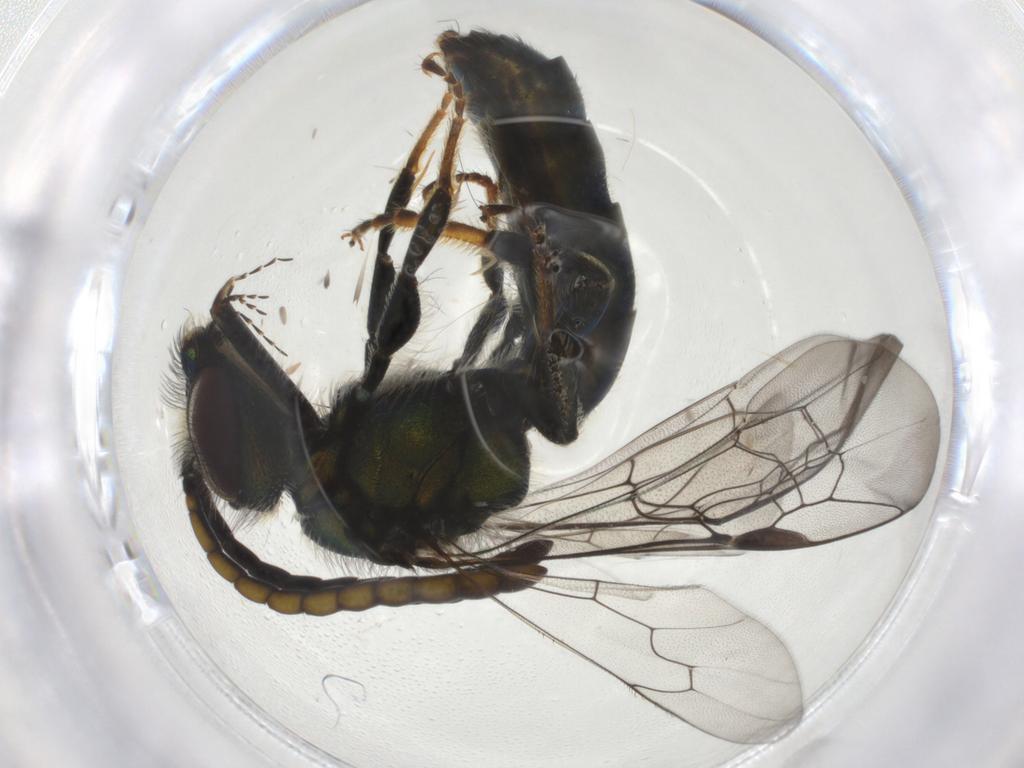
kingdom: Animalia
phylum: Arthropoda
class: Insecta
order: Hymenoptera
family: Halictidae
